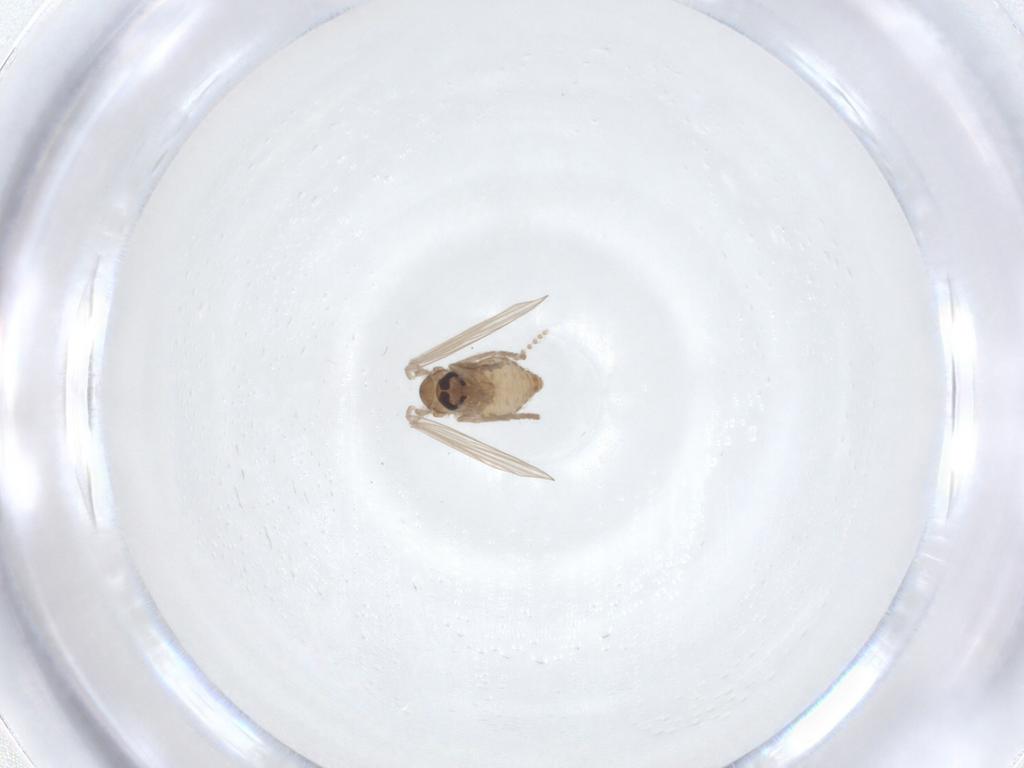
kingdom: Animalia
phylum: Arthropoda
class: Insecta
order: Diptera
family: Psychodidae
